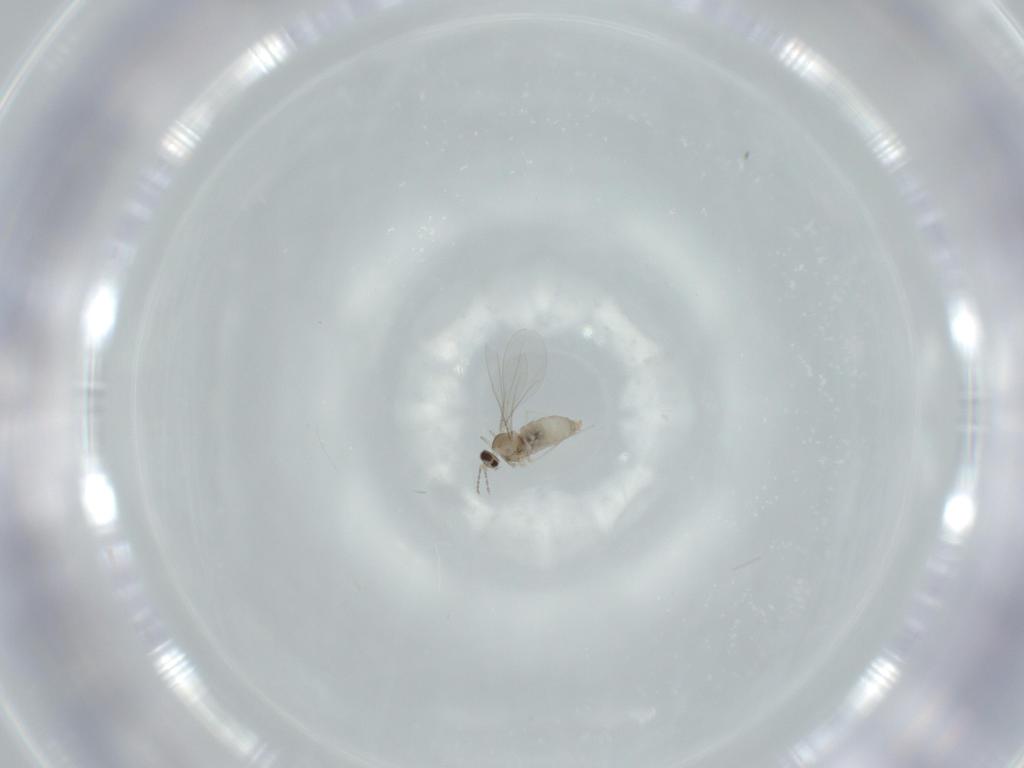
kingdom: Animalia
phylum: Arthropoda
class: Insecta
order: Diptera
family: Cecidomyiidae
